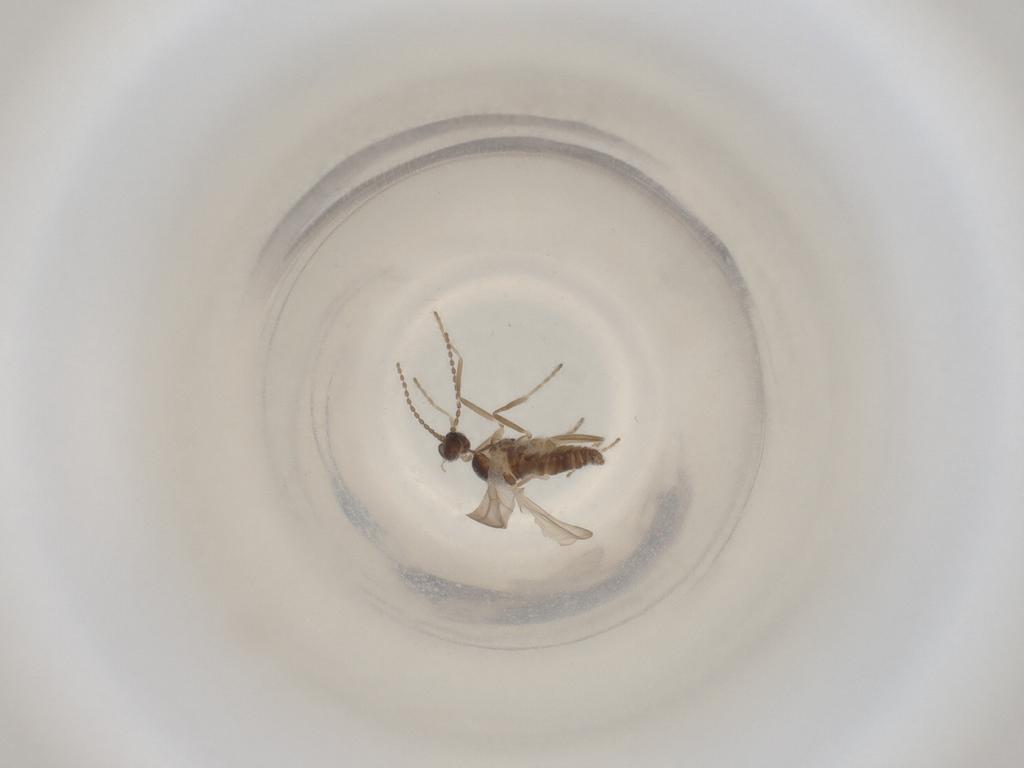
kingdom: Animalia
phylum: Arthropoda
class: Insecta
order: Diptera
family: Cecidomyiidae
